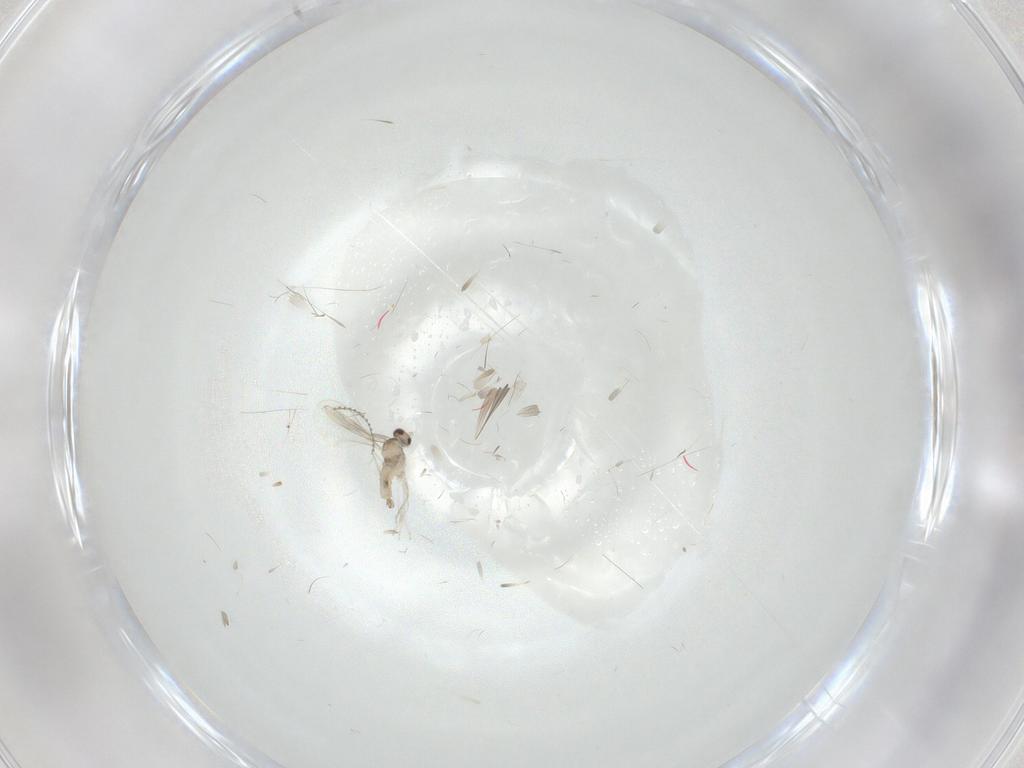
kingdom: Animalia
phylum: Arthropoda
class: Insecta
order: Diptera
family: Cecidomyiidae
